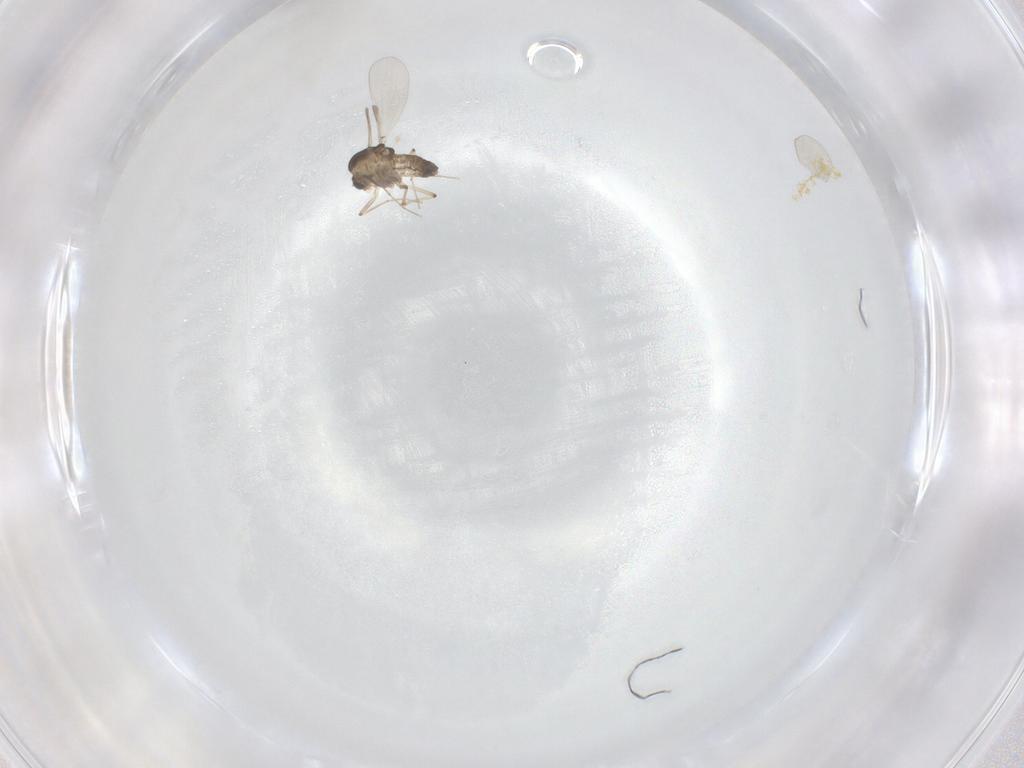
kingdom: Animalia
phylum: Arthropoda
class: Insecta
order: Diptera
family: Chironomidae
